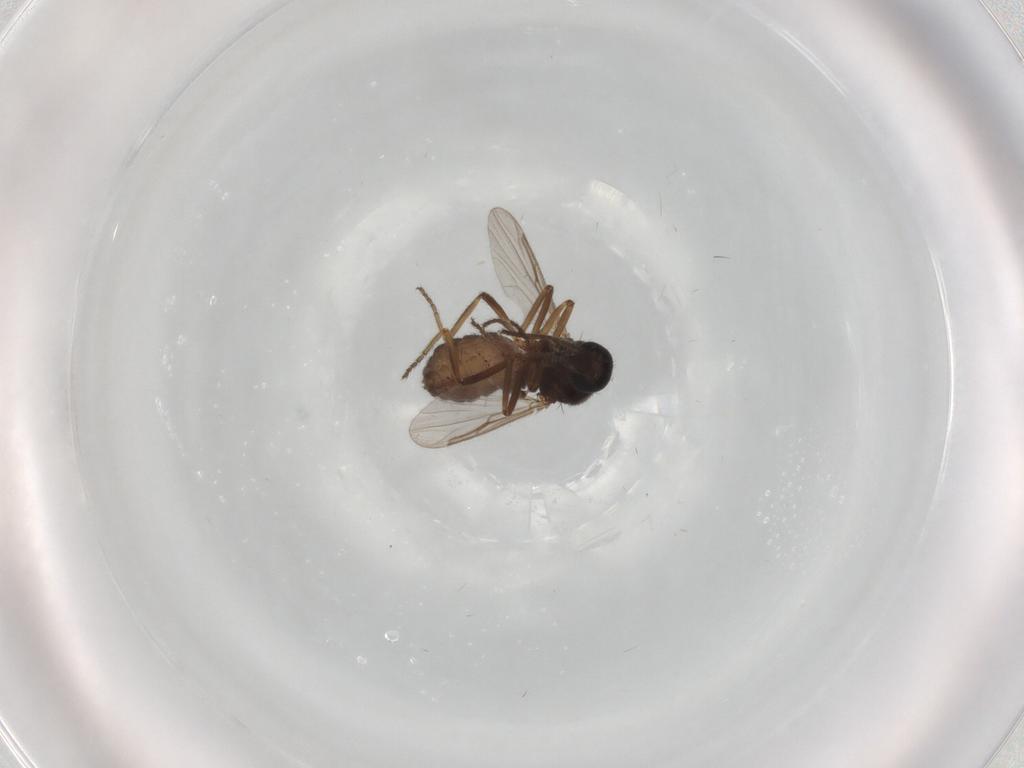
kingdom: Animalia
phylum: Arthropoda
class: Insecta
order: Diptera
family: Ceratopogonidae
